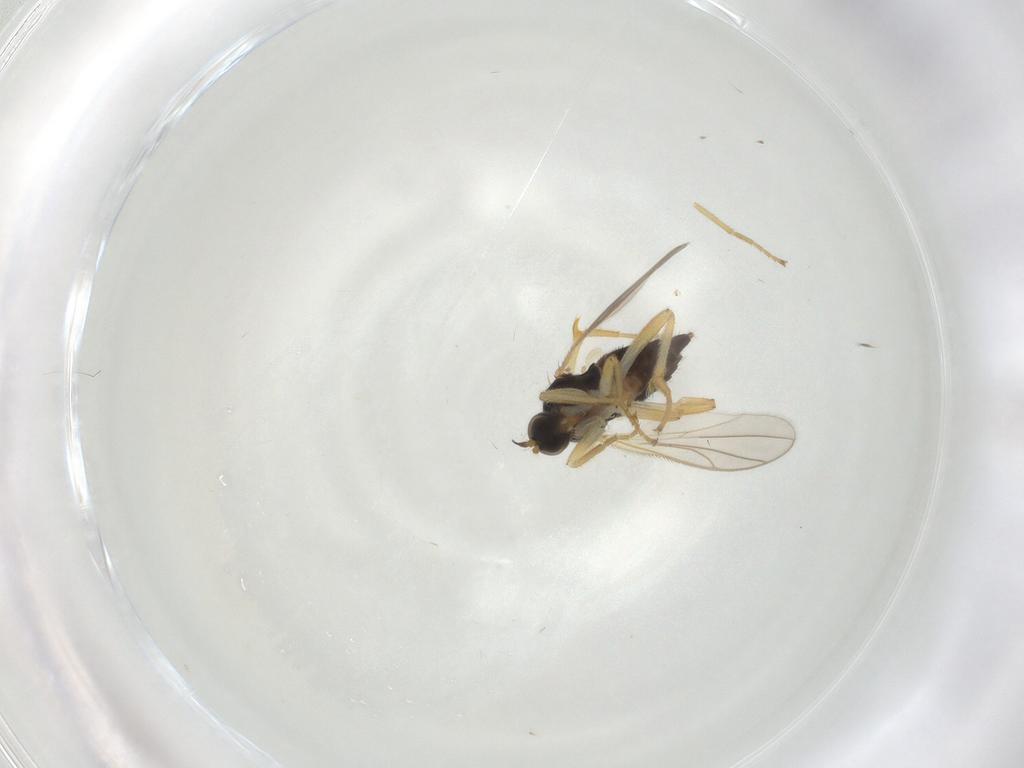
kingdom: Animalia
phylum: Arthropoda
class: Insecta
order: Diptera
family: Hybotidae
